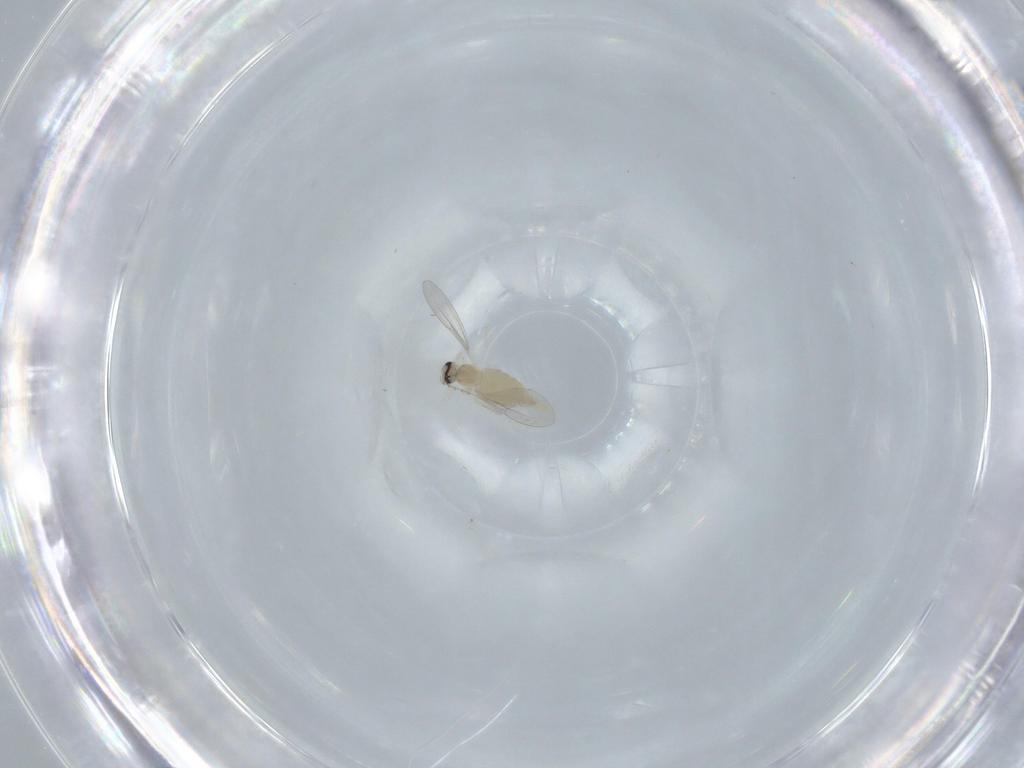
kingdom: Animalia
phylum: Arthropoda
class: Insecta
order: Diptera
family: Cecidomyiidae
